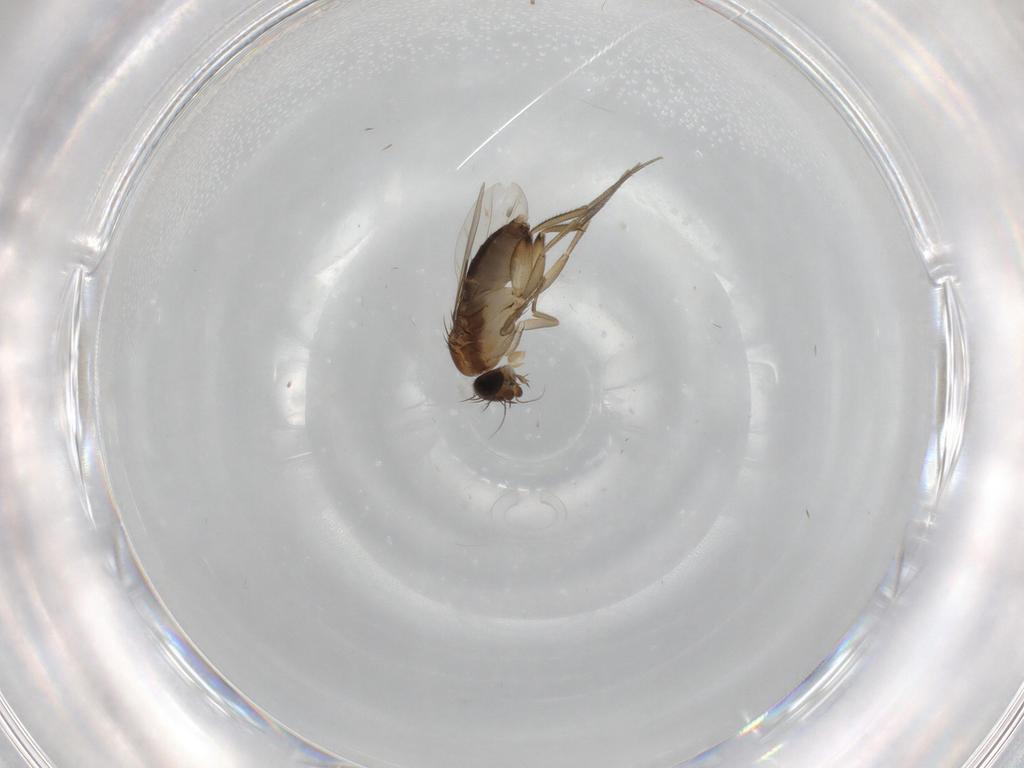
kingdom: Animalia
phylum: Arthropoda
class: Insecta
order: Diptera
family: Phoridae
